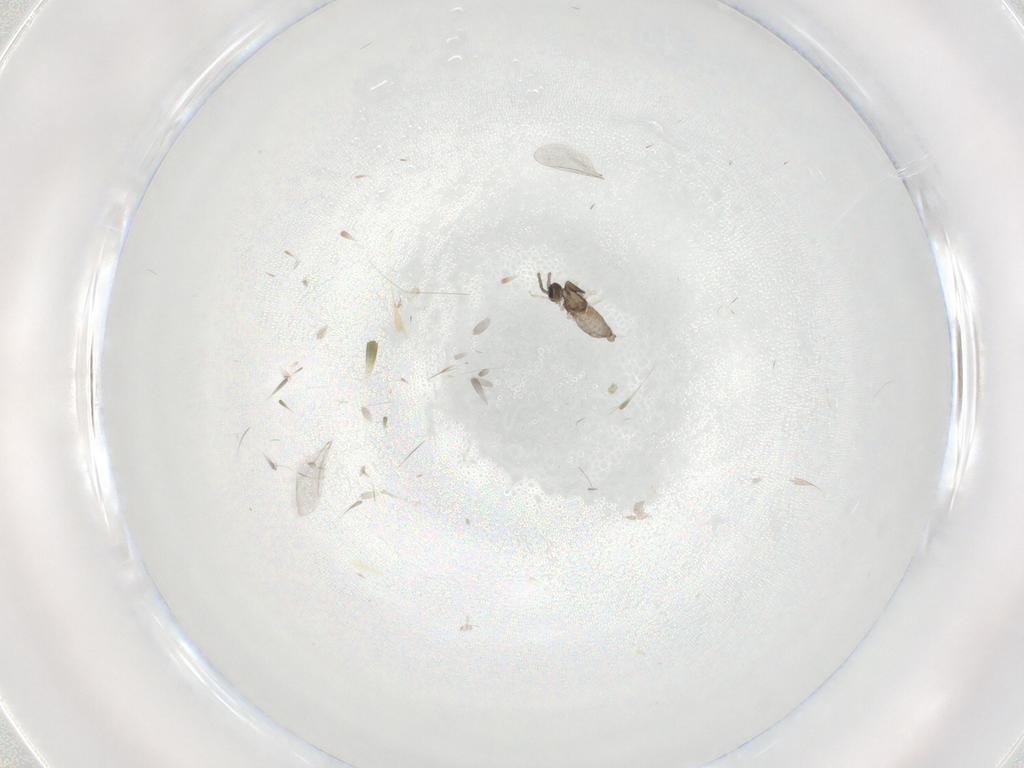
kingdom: Animalia
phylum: Arthropoda
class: Insecta
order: Diptera
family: Cecidomyiidae
